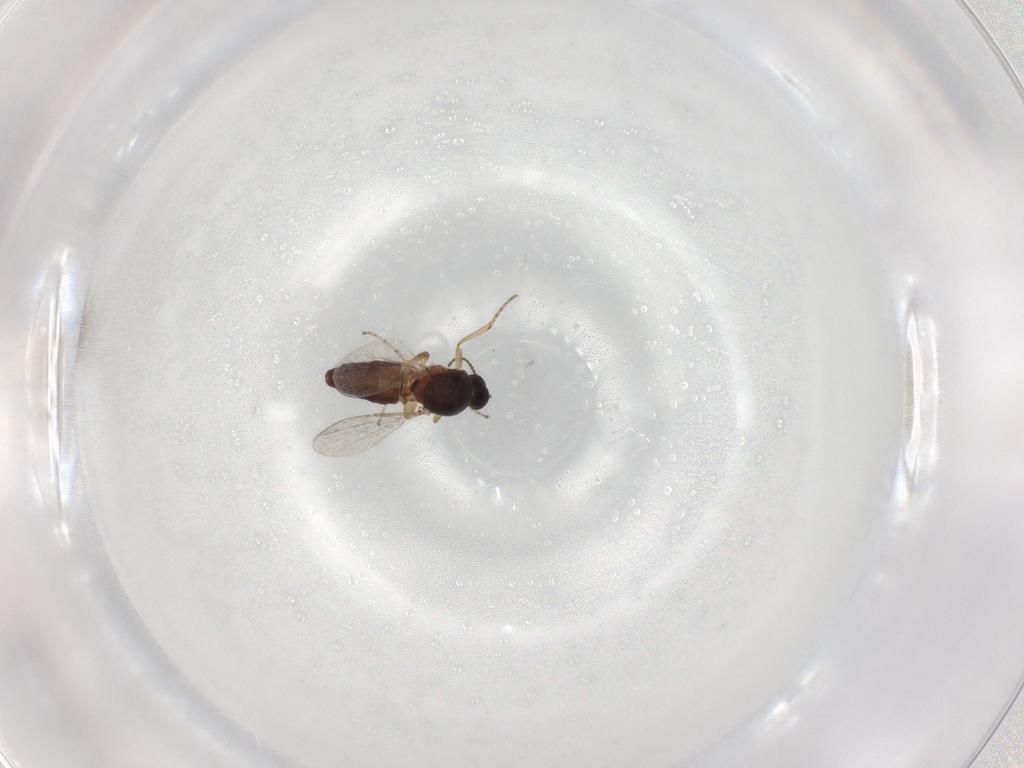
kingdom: Animalia
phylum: Arthropoda
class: Insecta
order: Diptera
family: Ceratopogonidae
